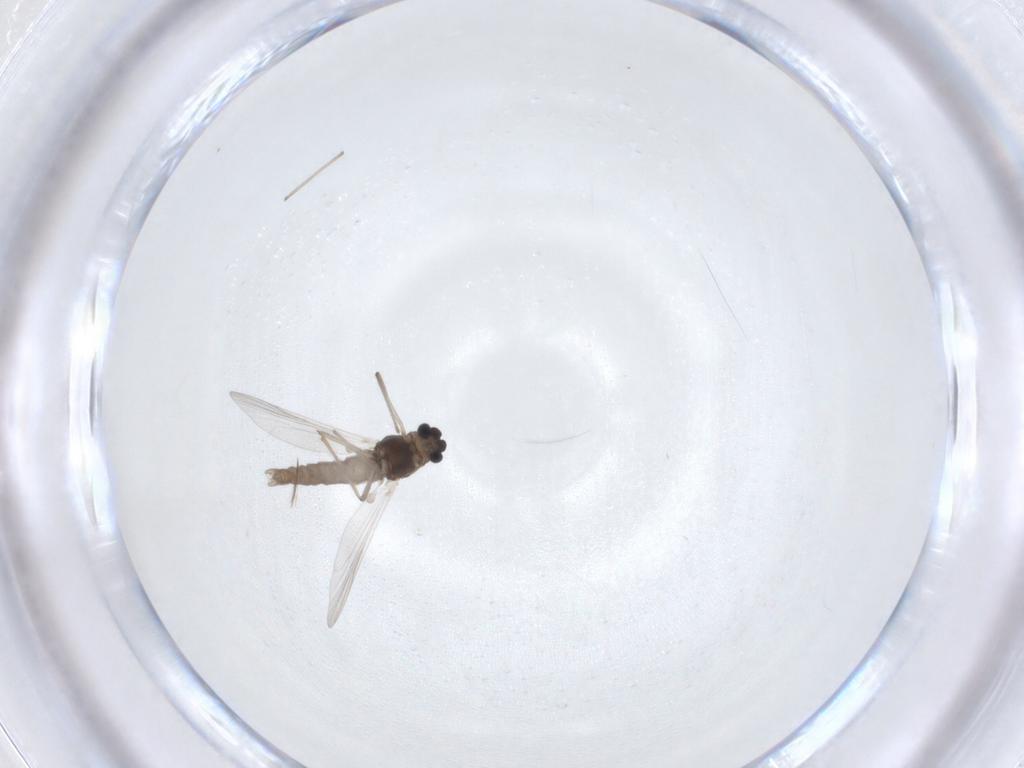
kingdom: Animalia
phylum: Arthropoda
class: Insecta
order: Diptera
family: Chironomidae
